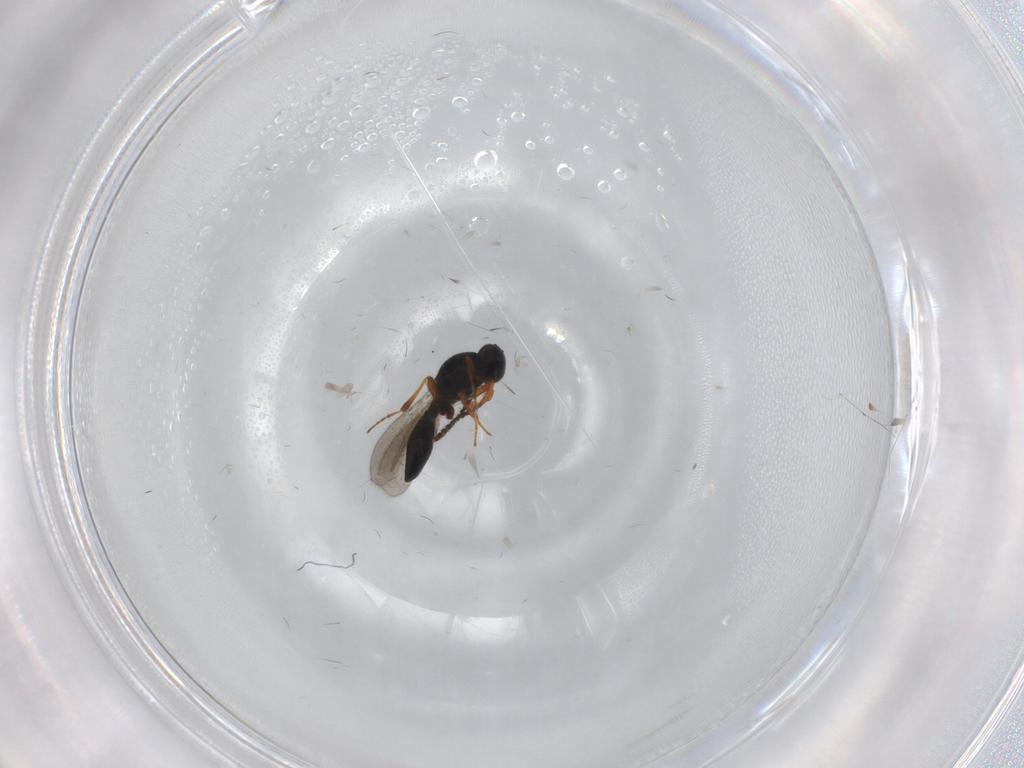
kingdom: Animalia
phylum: Arthropoda
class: Insecta
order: Hymenoptera
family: Platygastridae
